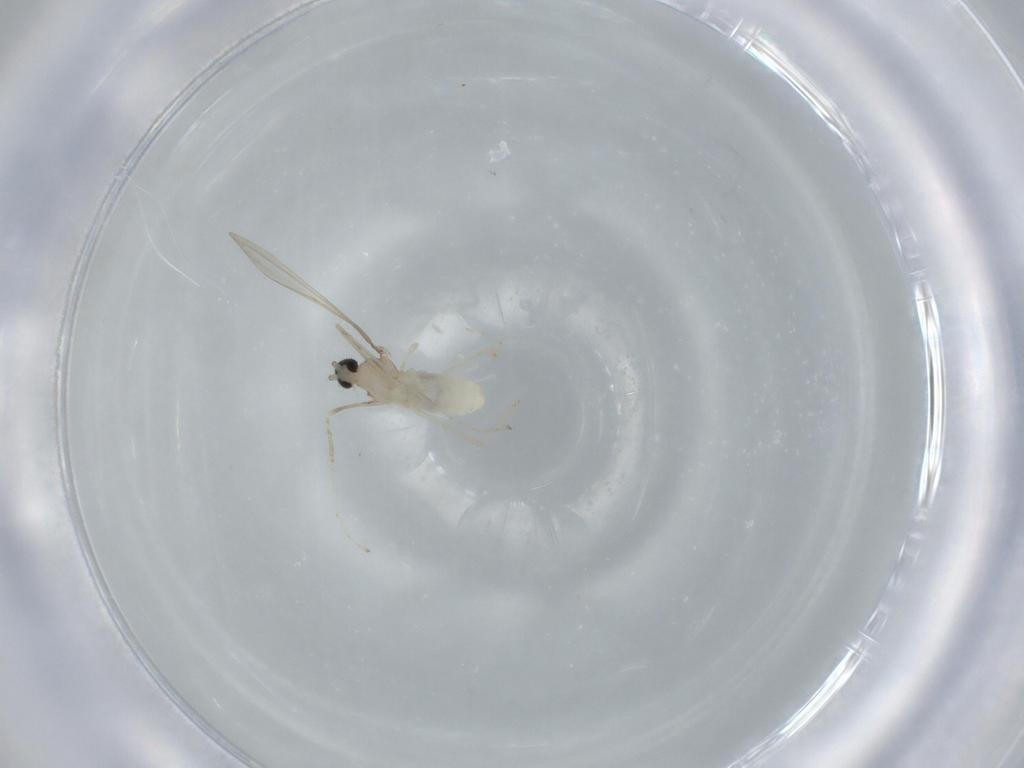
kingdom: Animalia
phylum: Arthropoda
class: Insecta
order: Diptera
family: Cecidomyiidae
